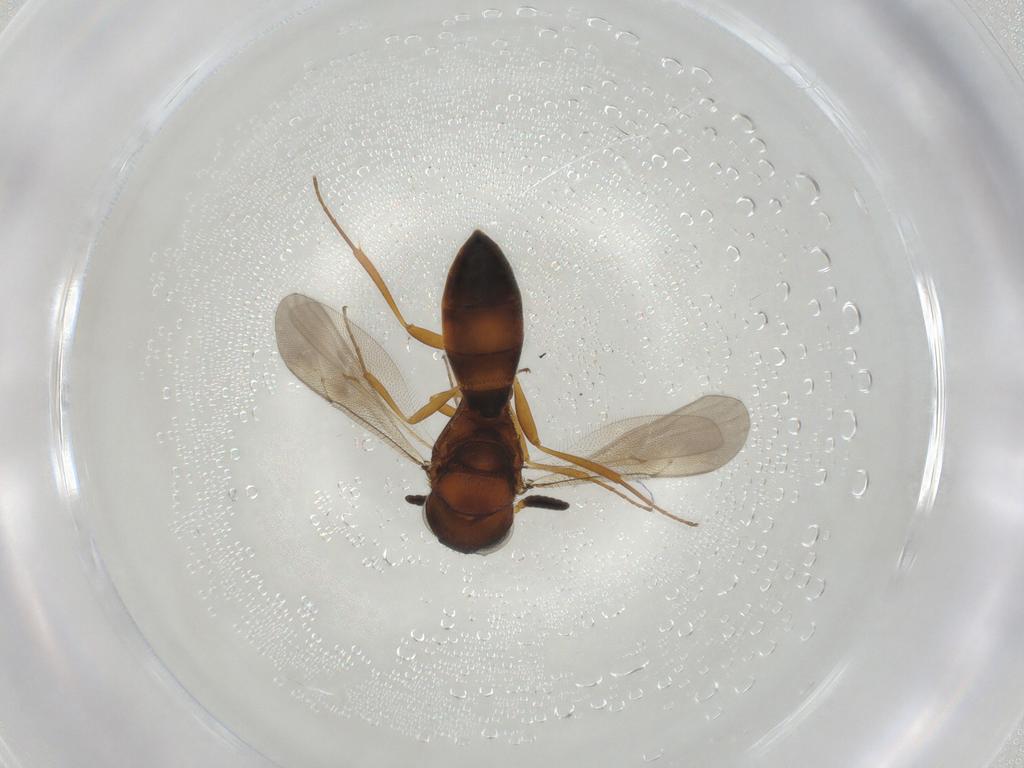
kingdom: Animalia
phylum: Arthropoda
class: Insecta
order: Hymenoptera
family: Scelionidae
